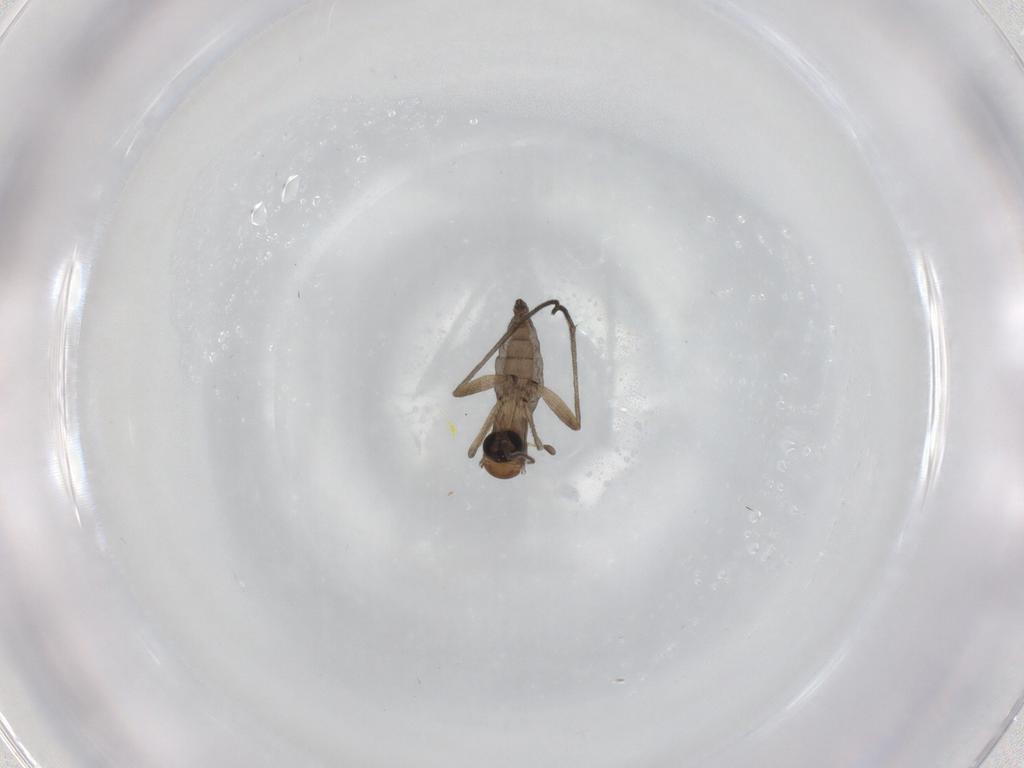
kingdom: Animalia
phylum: Arthropoda
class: Insecta
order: Diptera
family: Sciaridae
